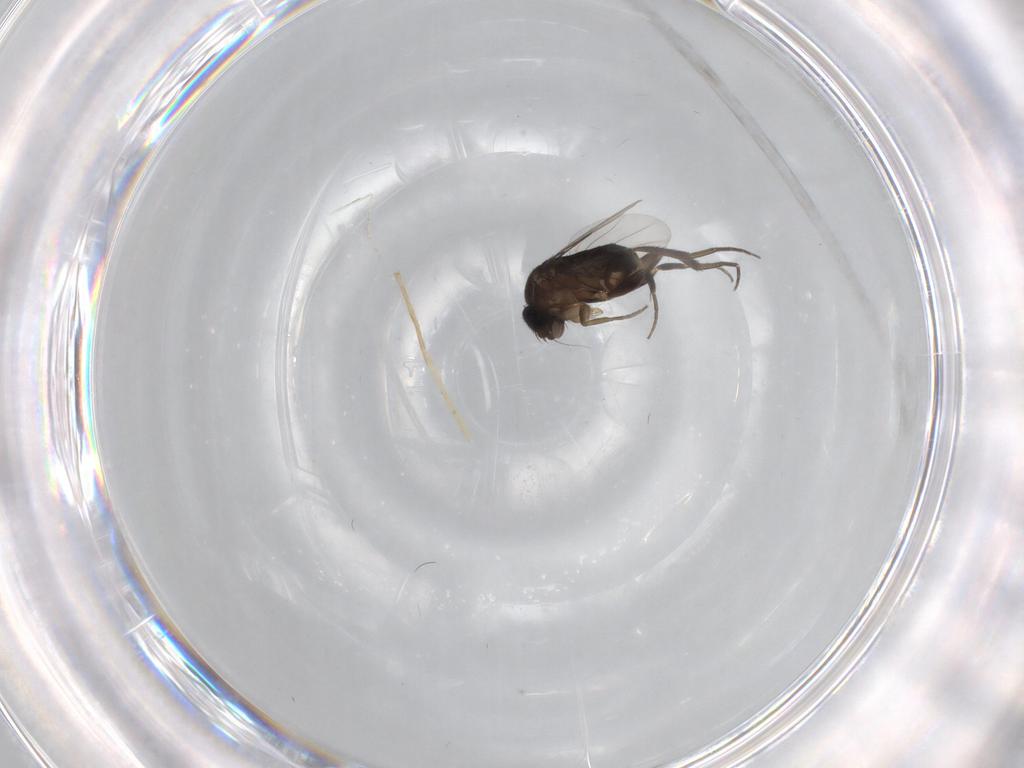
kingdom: Animalia
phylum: Arthropoda
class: Insecta
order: Diptera
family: Phoridae
